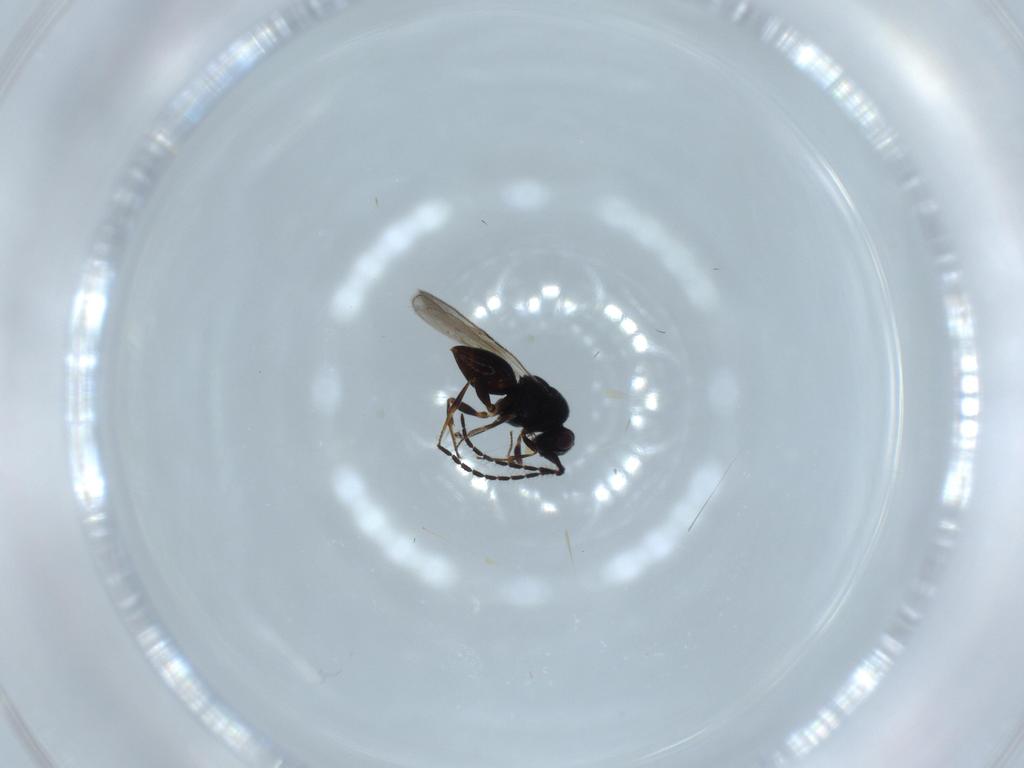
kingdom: Animalia
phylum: Arthropoda
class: Insecta
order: Hymenoptera
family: Ceraphronidae
